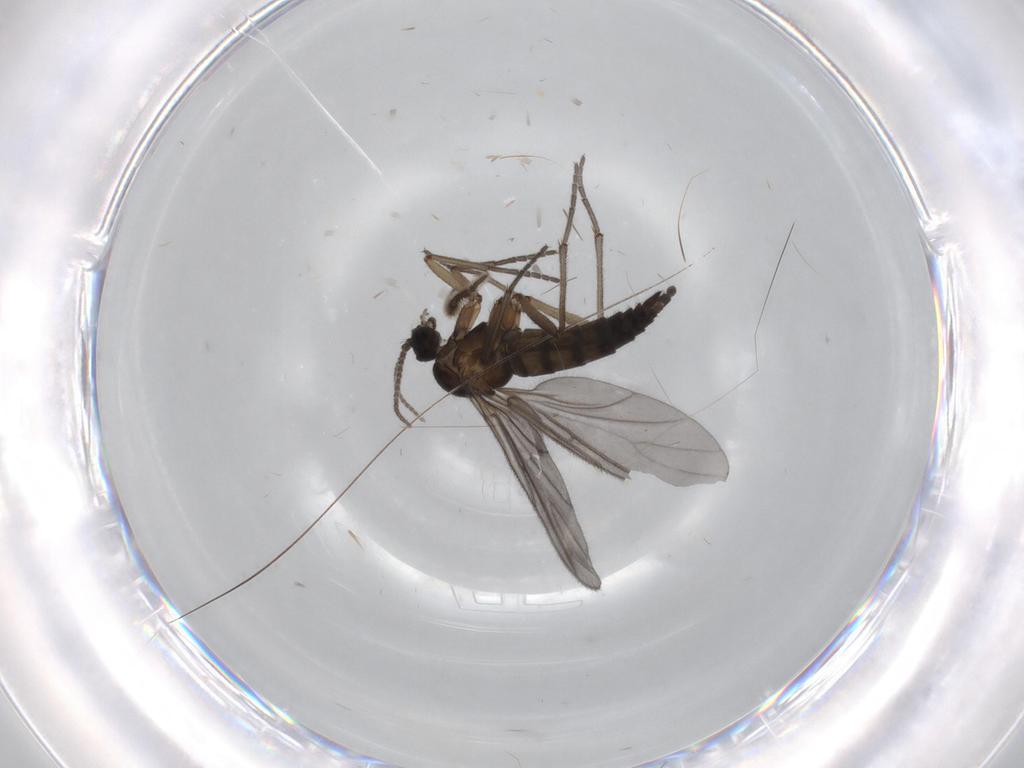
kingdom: Animalia
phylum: Arthropoda
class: Insecta
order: Diptera
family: Sciaridae
